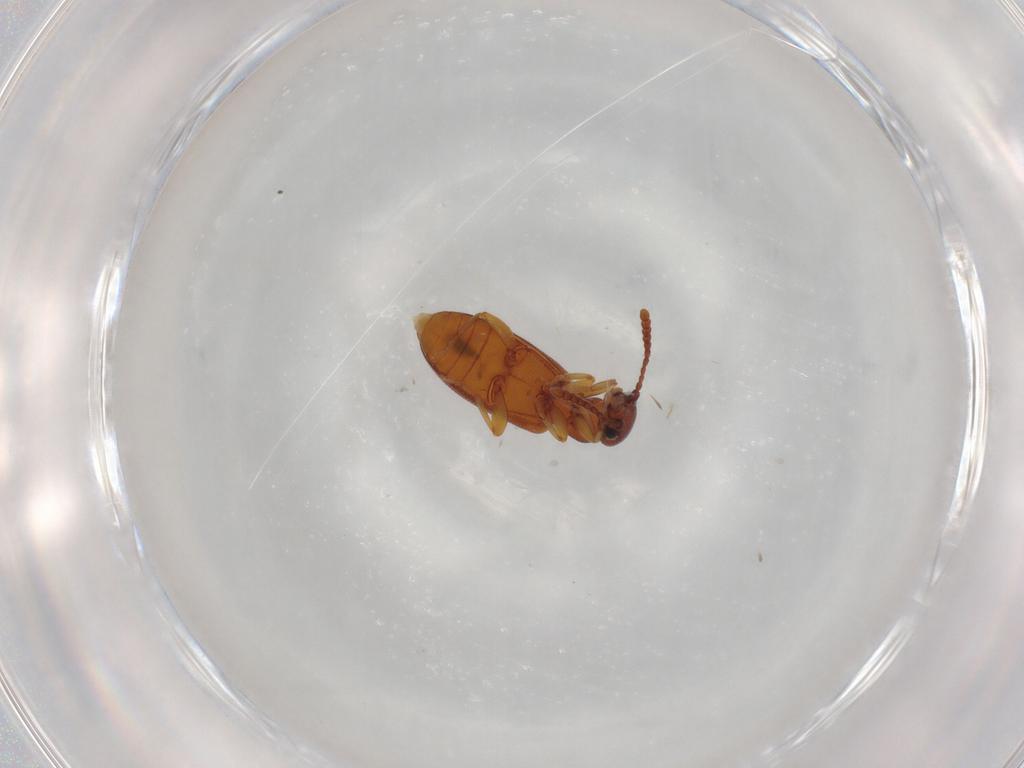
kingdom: Animalia
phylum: Arthropoda
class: Insecta
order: Coleoptera
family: Anthicidae
